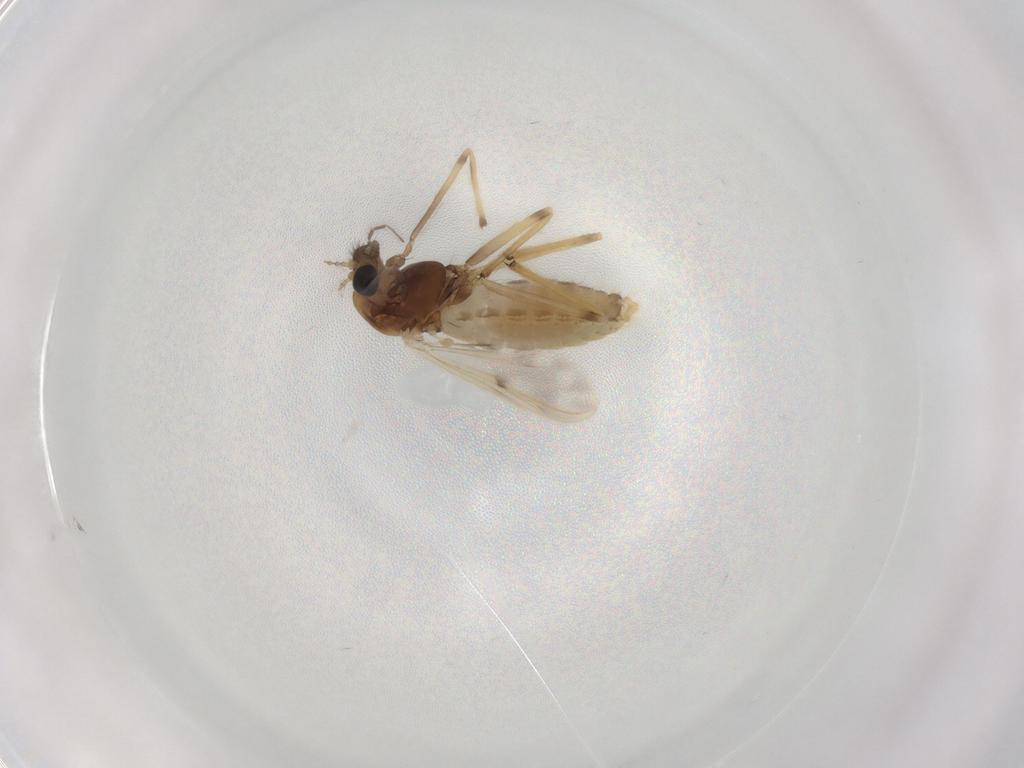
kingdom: Animalia
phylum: Arthropoda
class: Insecta
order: Diptera
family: Chironomidae
